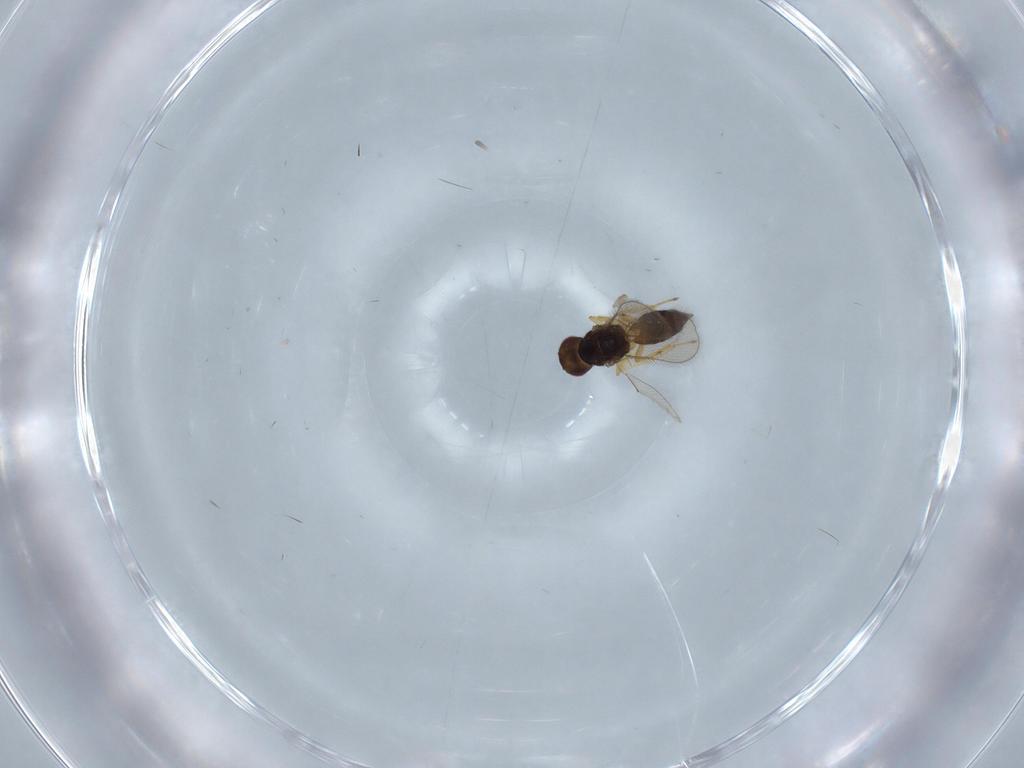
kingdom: Animalia
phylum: Arthropoda
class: Insecta
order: Hymenoptera
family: Eulophidae
